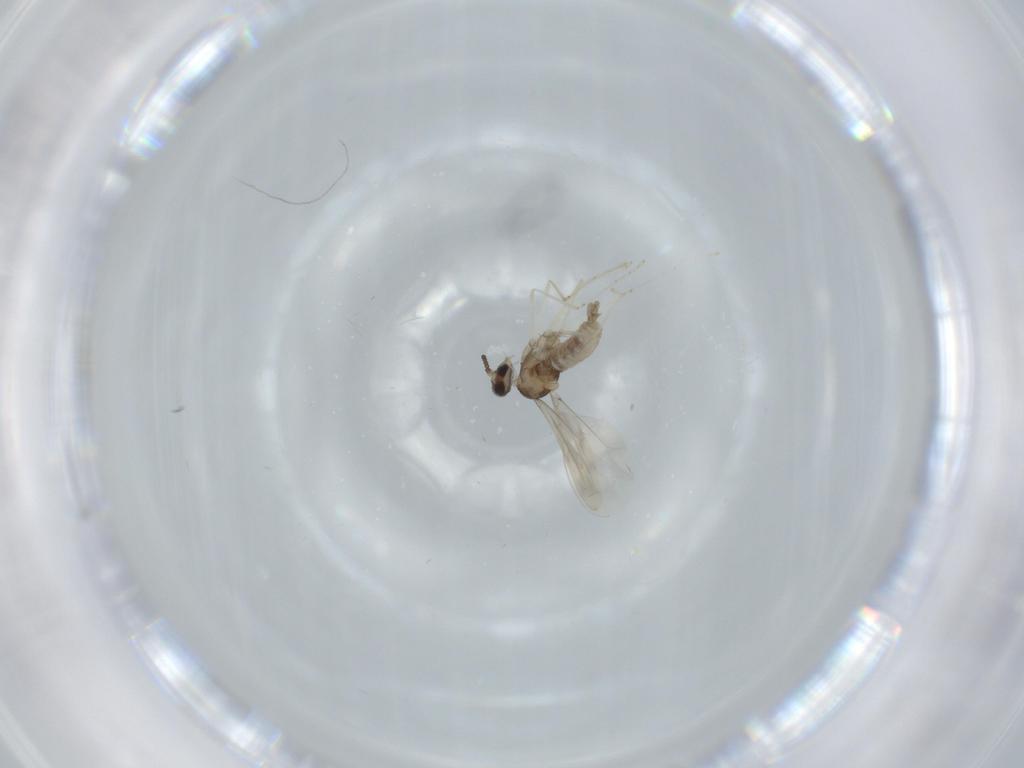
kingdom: Animalia
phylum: Arthropoda
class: Insecta
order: Diptera
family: Cecidomyiidae
